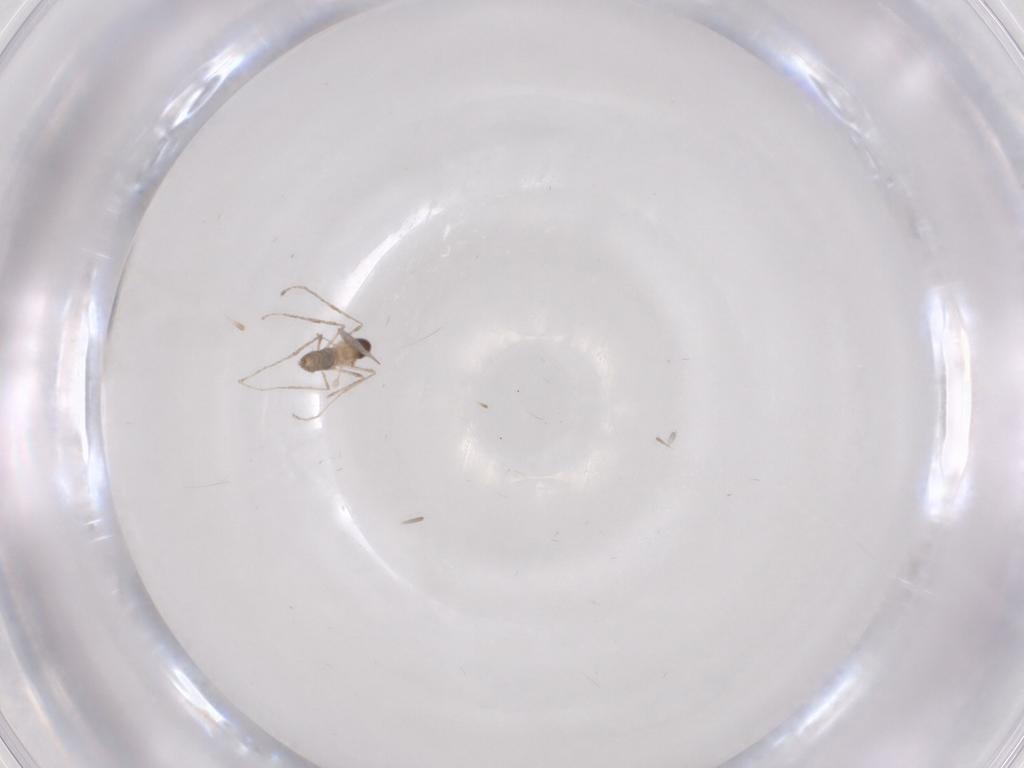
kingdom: Animalia
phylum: Arthropoda
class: Insecta
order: Diptera
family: Cecidomyiidae
